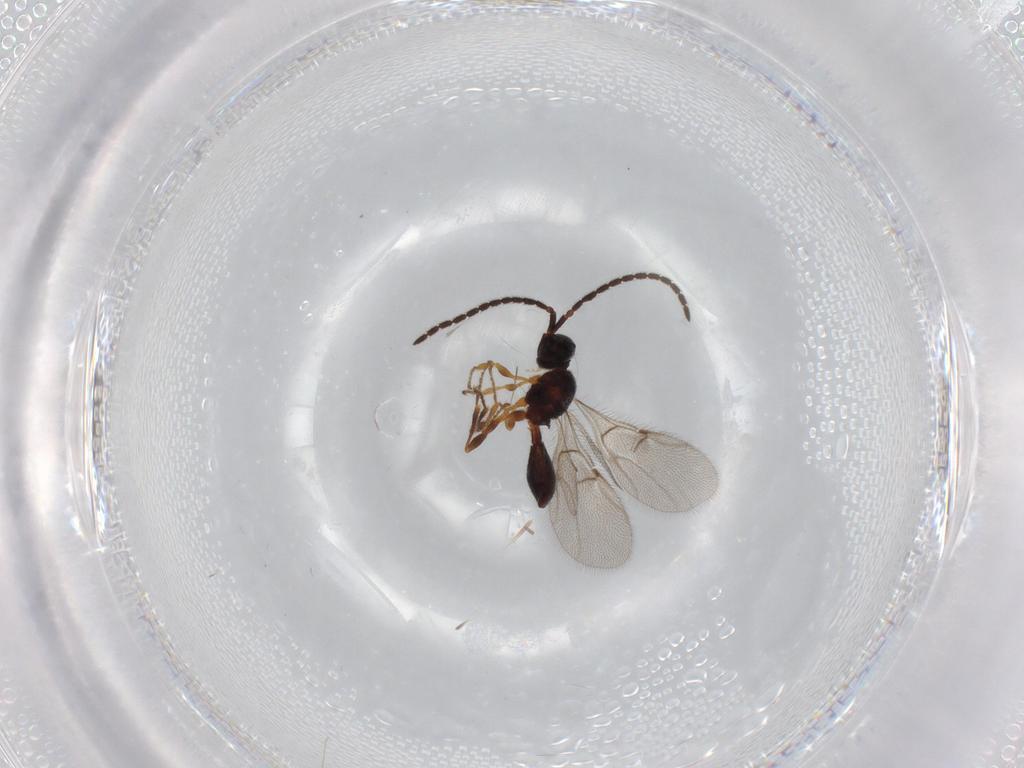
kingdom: Animalia
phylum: Arthropoda
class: Insecta
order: Hymenoptera
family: Diapriidae
